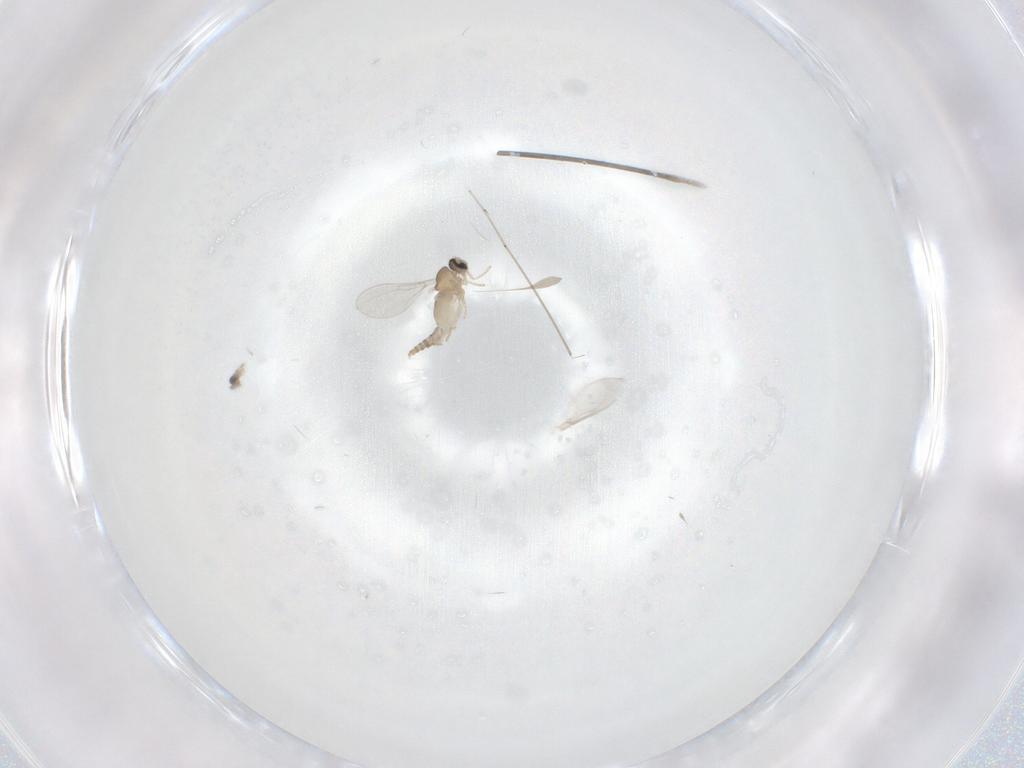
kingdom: Animalia
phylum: Arthropoda
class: Insecta
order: Diptera
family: Cecidomyiidae
